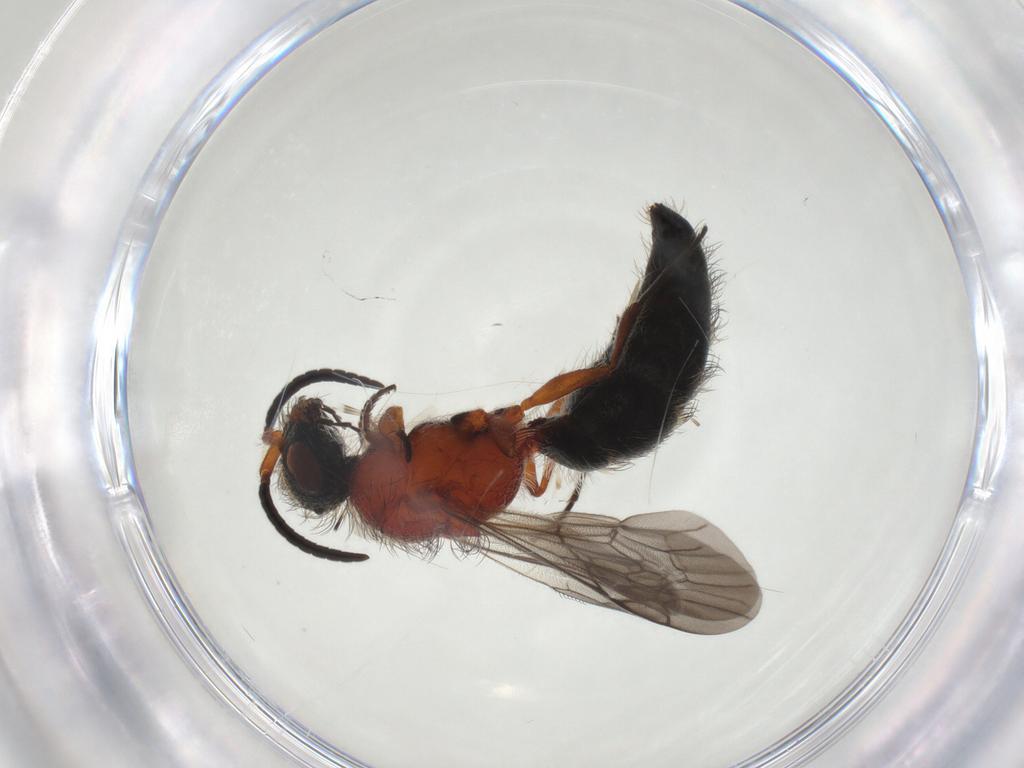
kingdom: Animalia
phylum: Arthropoda
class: Insecta
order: Hymenoptera
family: Mutillidae
